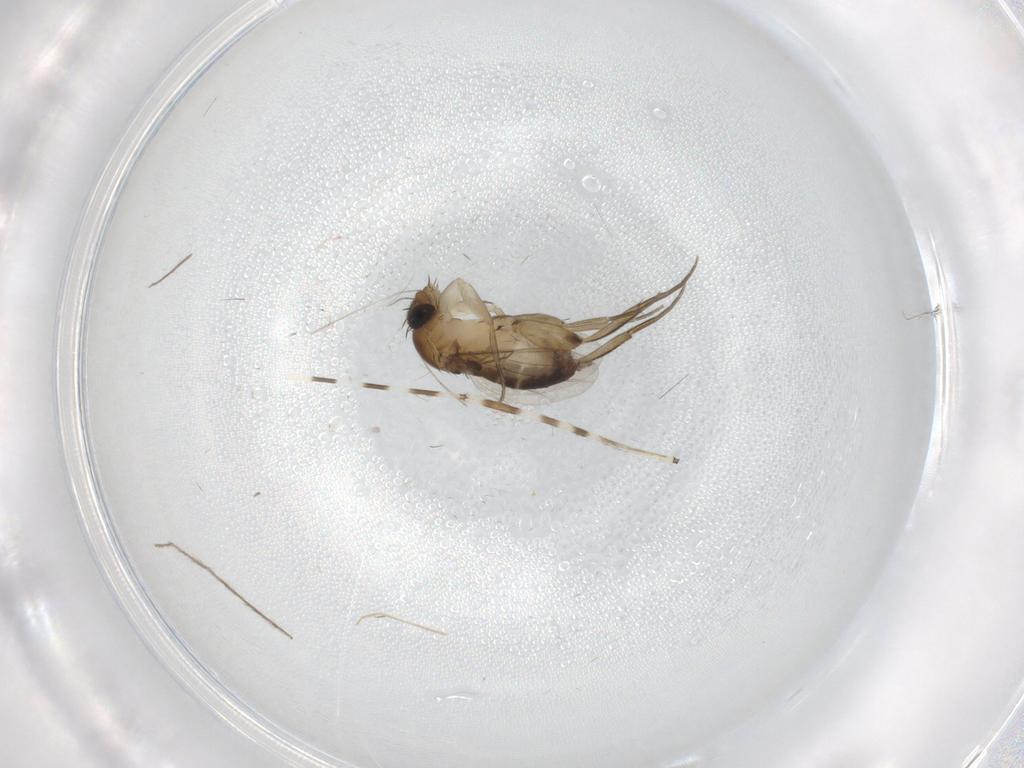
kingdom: Animalia
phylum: Arthropoda
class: Insecta
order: Diptera
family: Phoridae
